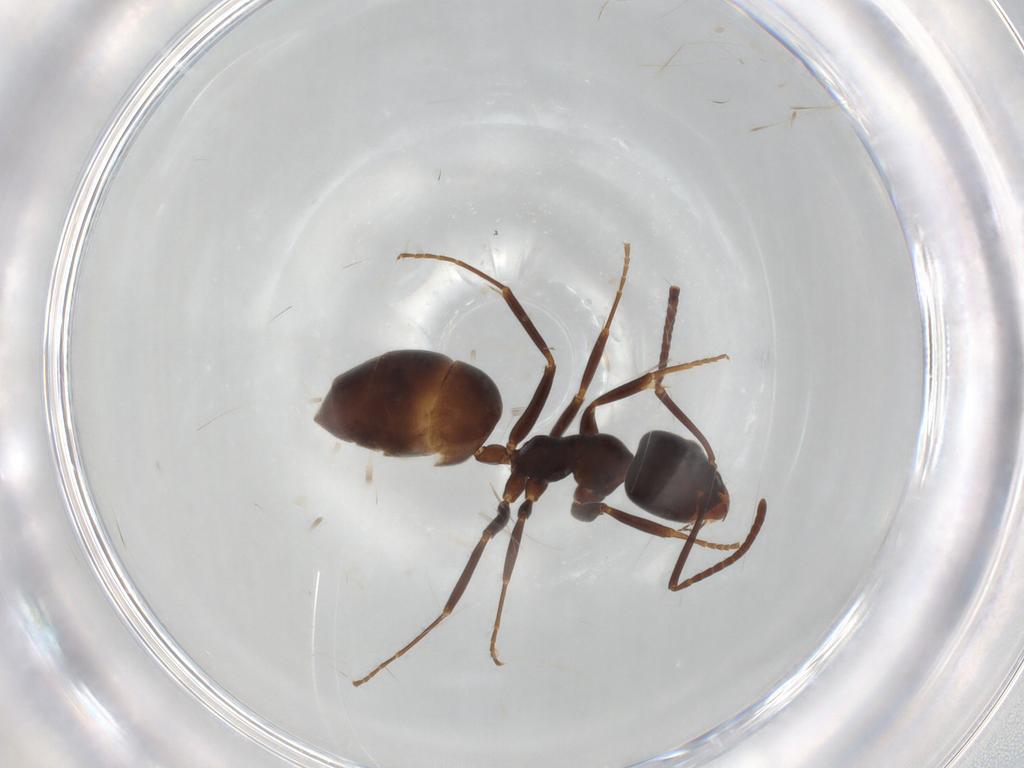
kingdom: Animalia
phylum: Arthropoda
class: Insecta
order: Hymenoptera
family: Formicidae
